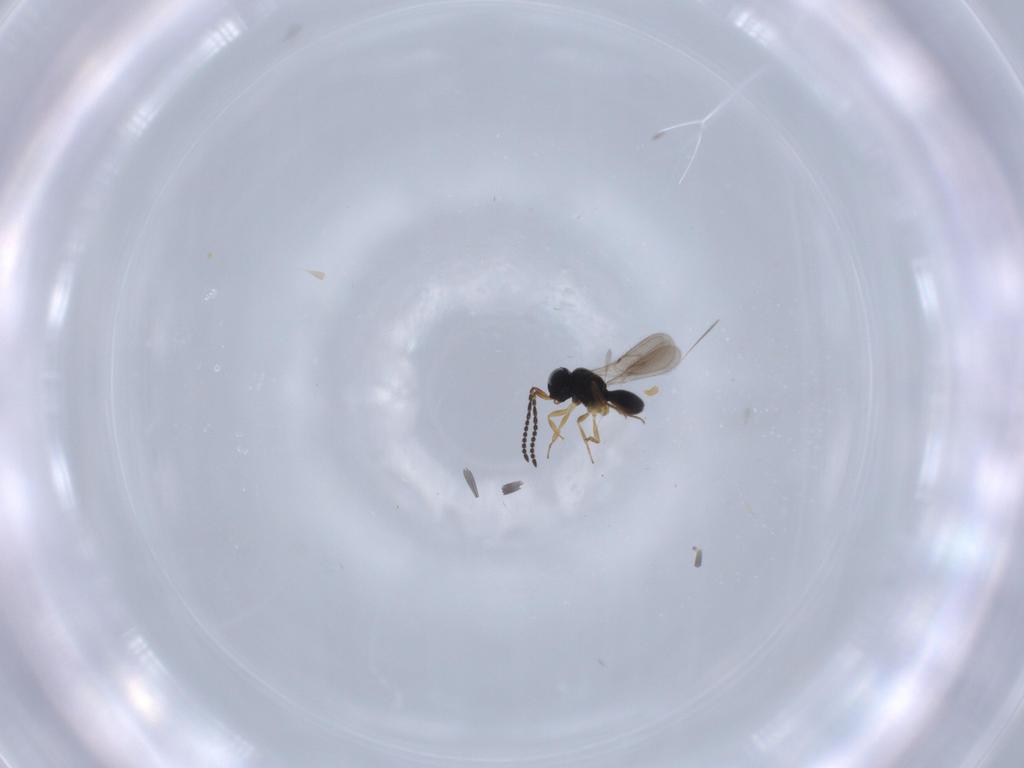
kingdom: Animalia
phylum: Arthropoda
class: Insecta
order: Hymenoptera
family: Scelionidae
